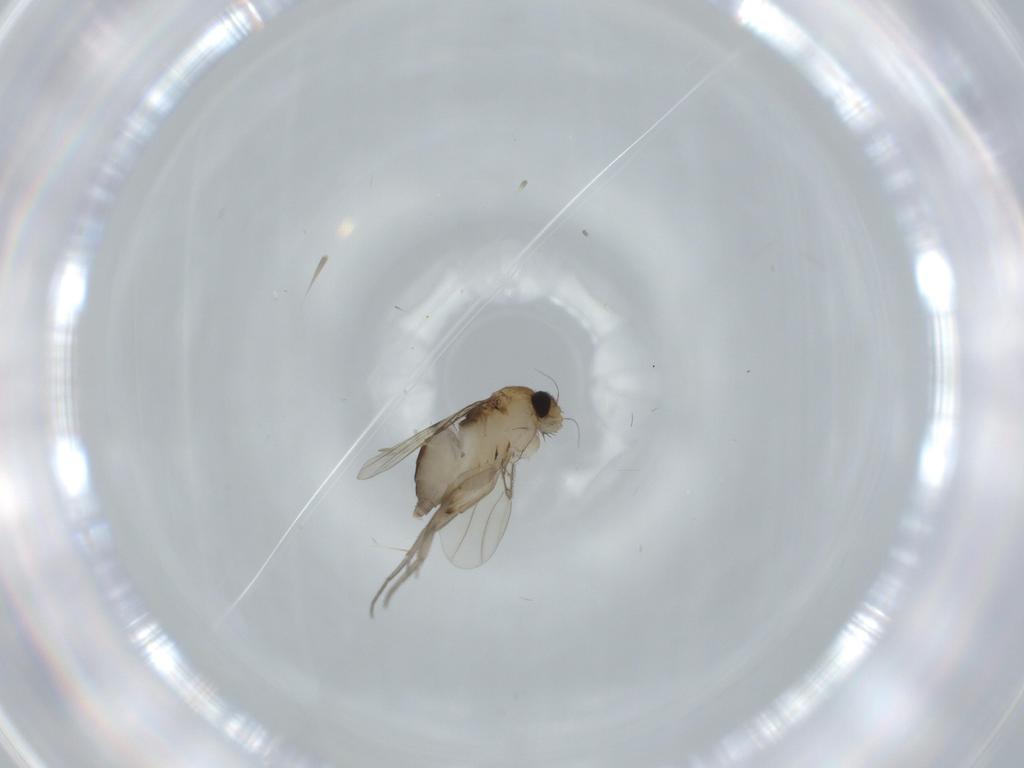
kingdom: Animalia
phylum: Arthropoda
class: Insecta
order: Diptera
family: Phoridae
